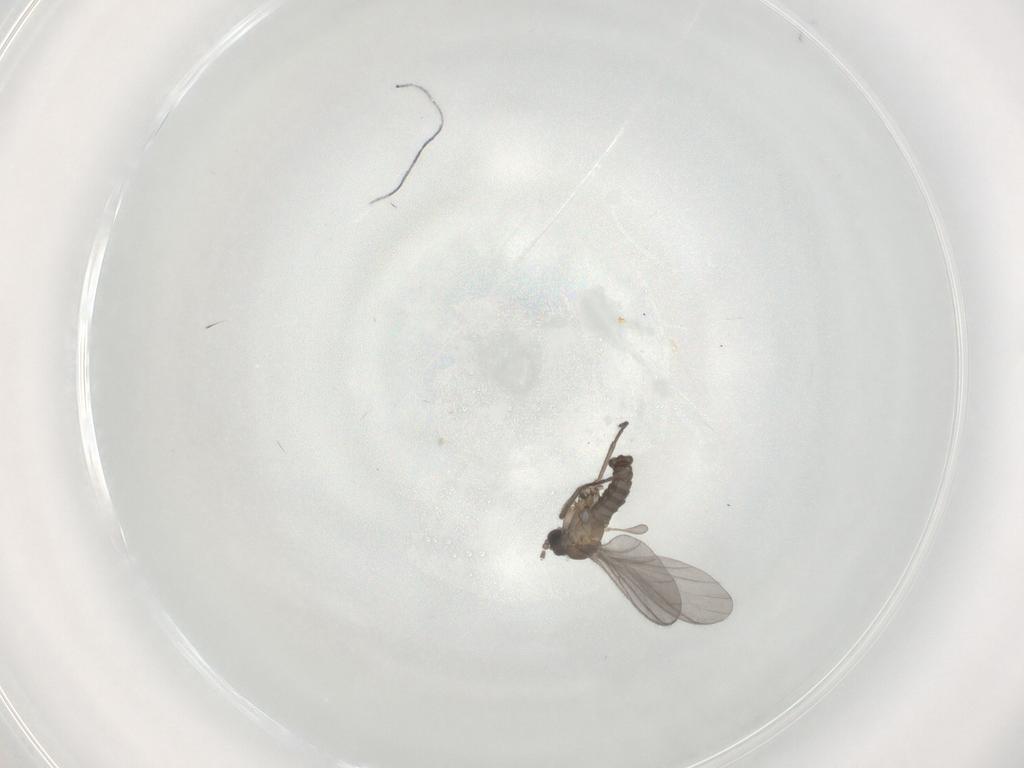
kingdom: Animalia
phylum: Arthropoda
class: Insecta
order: Diptera
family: Sciaridae
